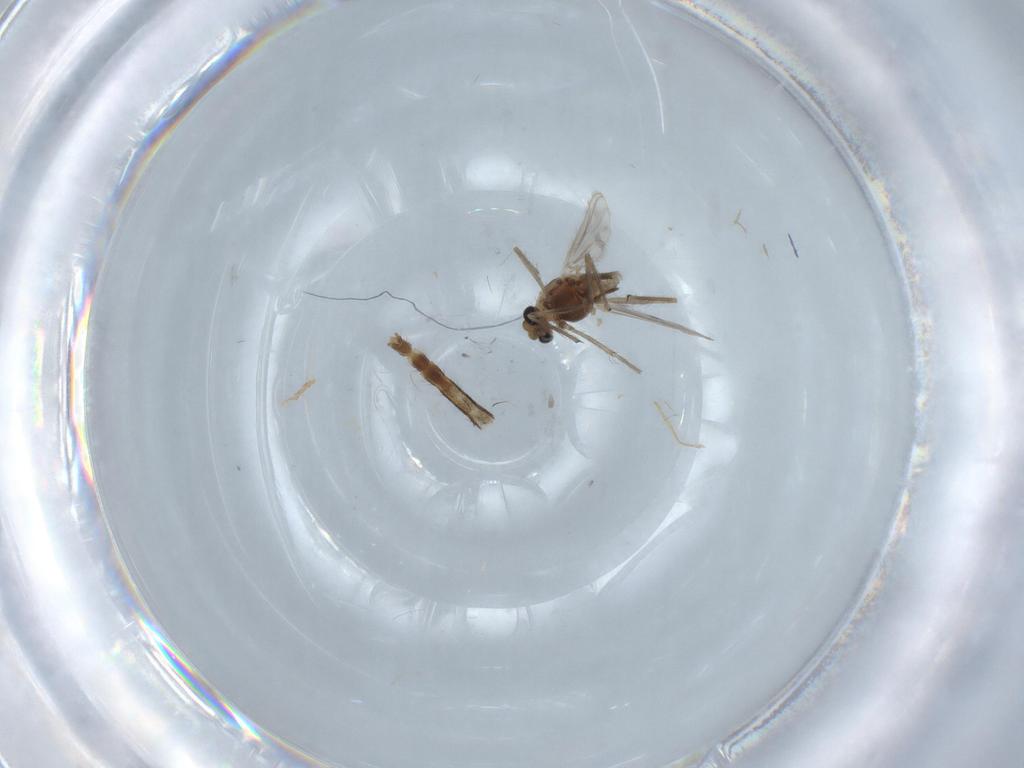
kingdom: Animalia
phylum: Arthropoda
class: Insecta
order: Diptera
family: Chironomidae
